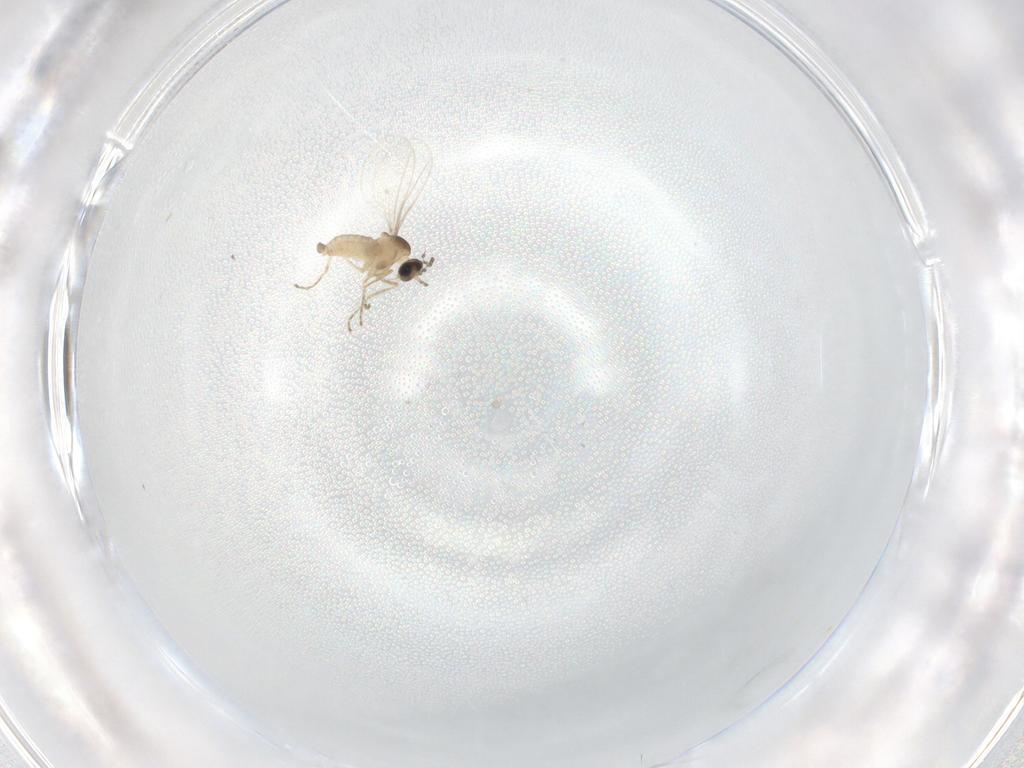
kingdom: Animalia
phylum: Arthropoda
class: Insecta
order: Diptera
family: Cecidomyiidae
